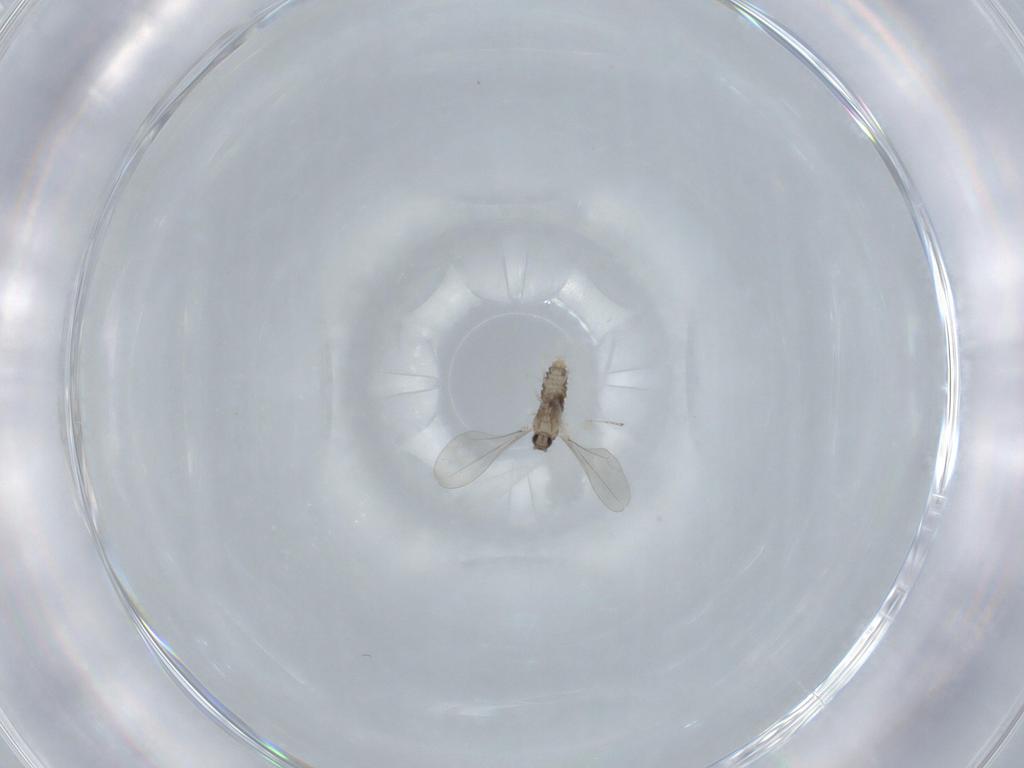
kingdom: Animalia
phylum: Arthropoda
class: Insecta
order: Diptera
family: Cecidomyiidae
